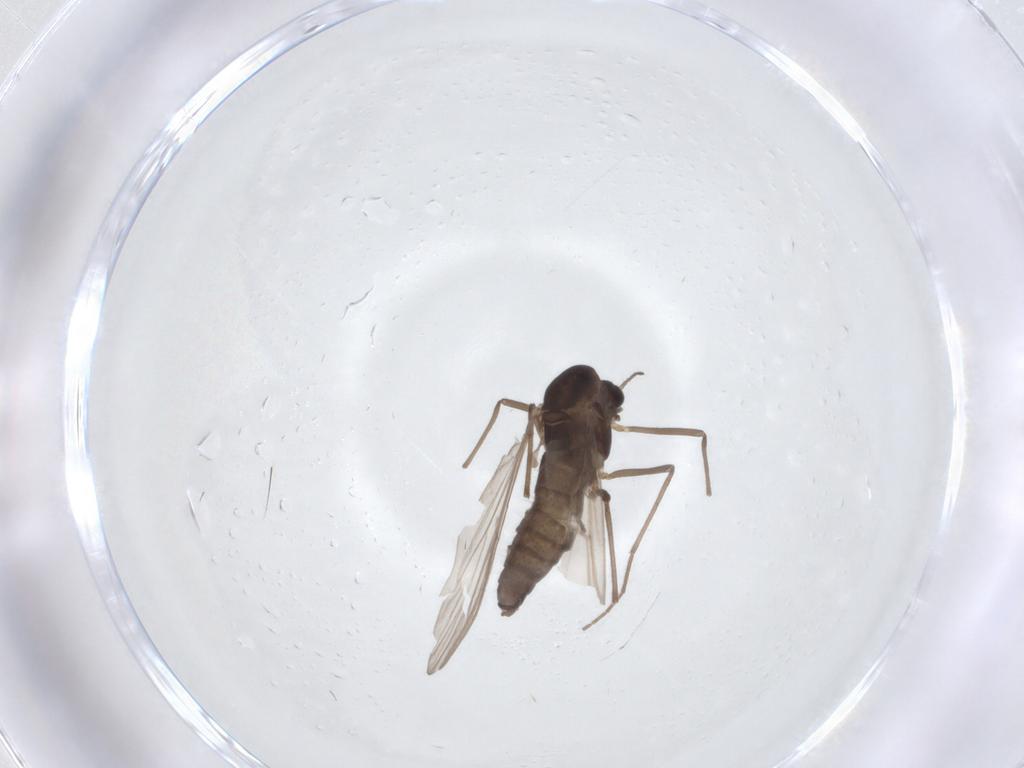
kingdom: Animalia
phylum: Arthropoda
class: Insecta
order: Diptera
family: Chironomidae
